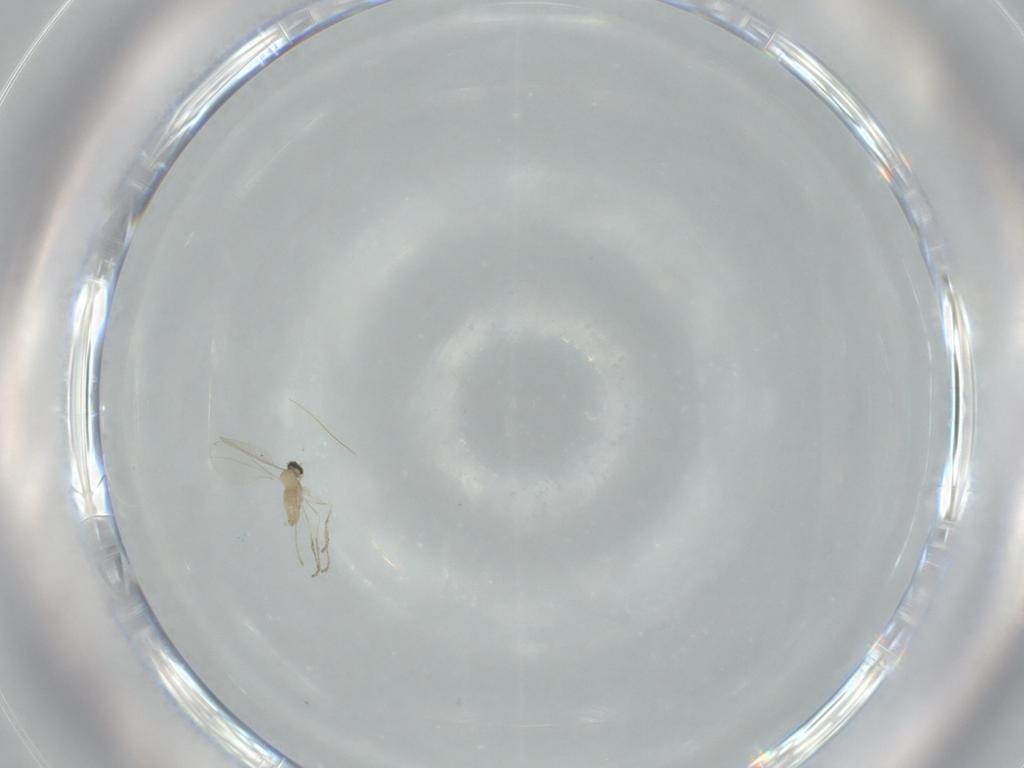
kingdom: Animalia
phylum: Arthropoda
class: Insecta
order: Diptera
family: Cecidomyiidae
